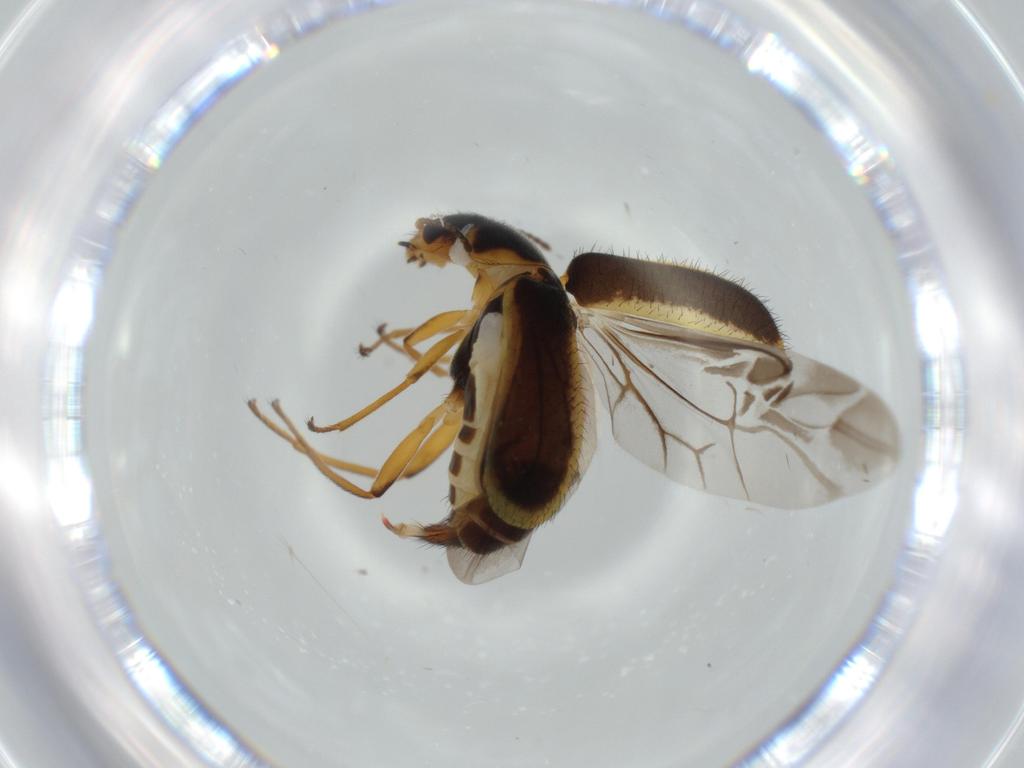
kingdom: Animalia
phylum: Arthropoda
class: Insecta
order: Coleoptera
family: Melyridae
